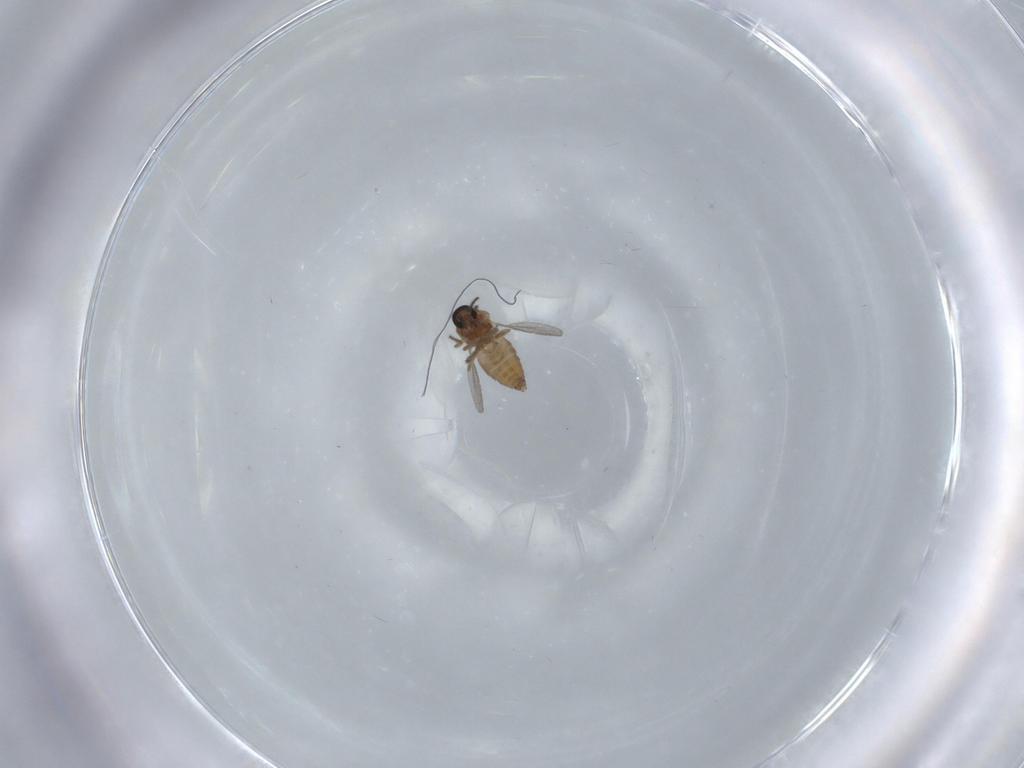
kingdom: Animalia
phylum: Arthropoda
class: Insecta
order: Diptera
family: Ceratopogonidae
